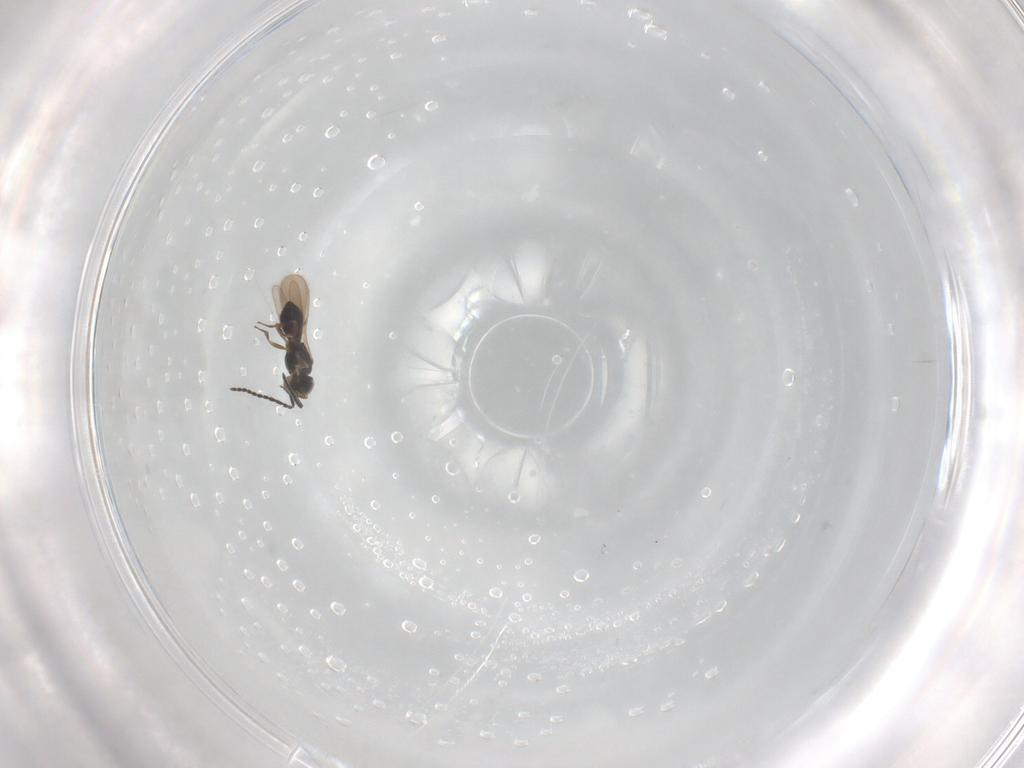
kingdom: Animalia
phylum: Arthropoda
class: Insecta
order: Hymenoptera
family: Scelionidae
